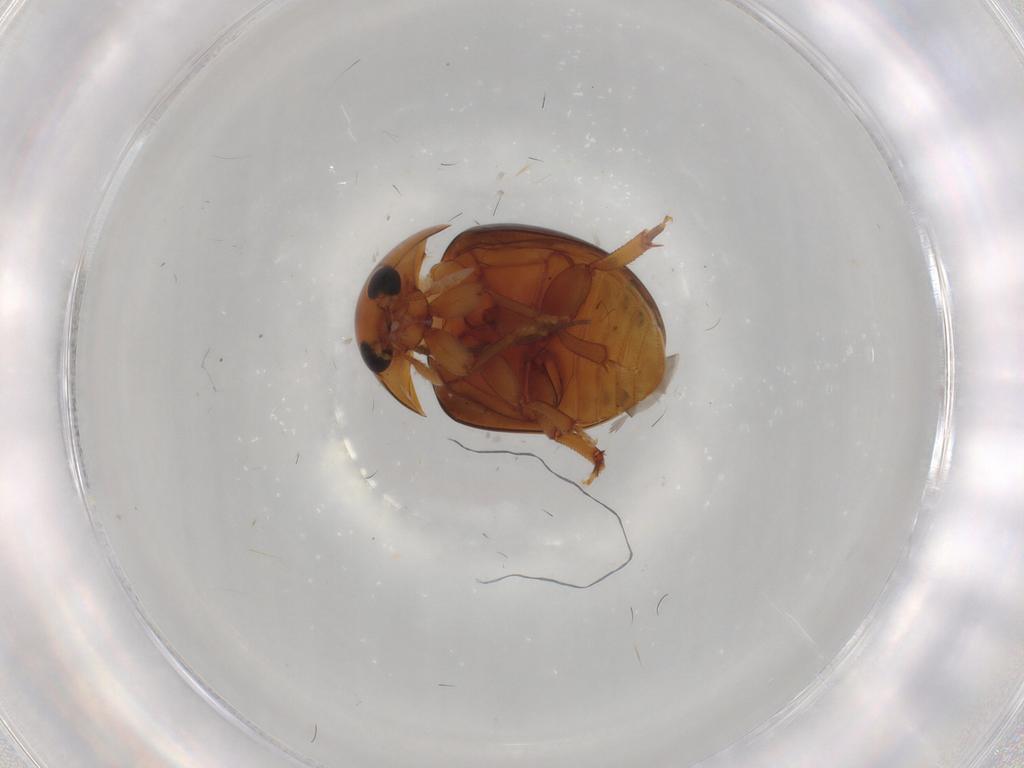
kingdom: Animalia
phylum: Arthropoda
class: Insecta
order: Coleoptera
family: Phalacridae
